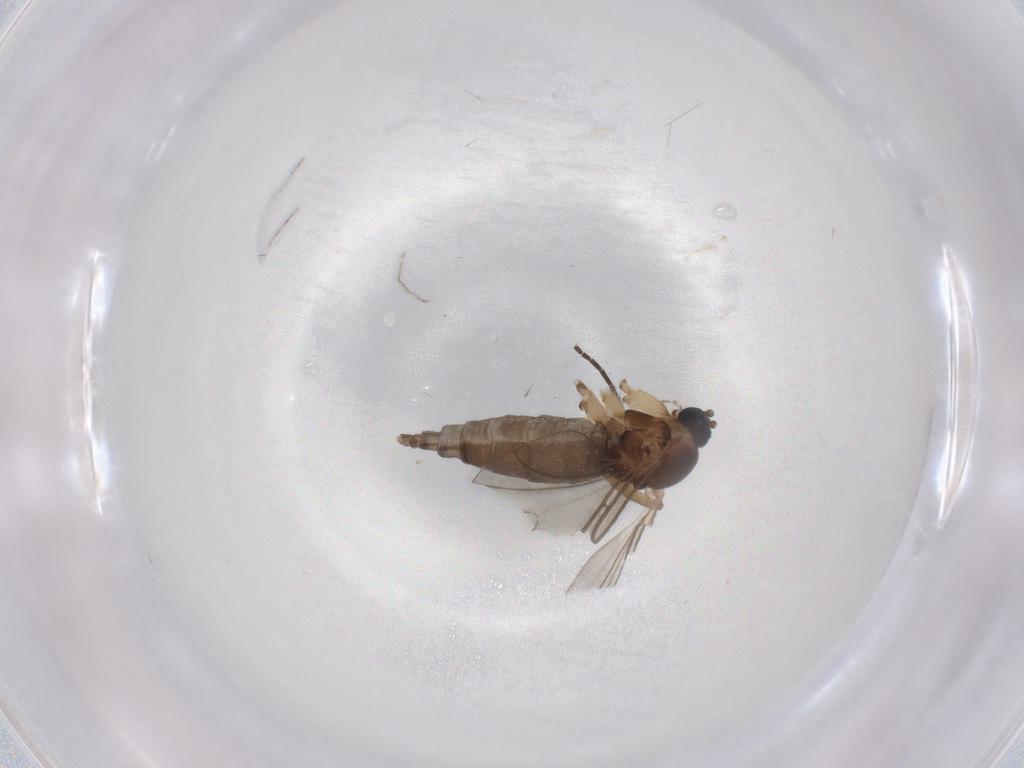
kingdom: Animalia
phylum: Arthropoda
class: Insecta
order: Diptera
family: Sciaridae
